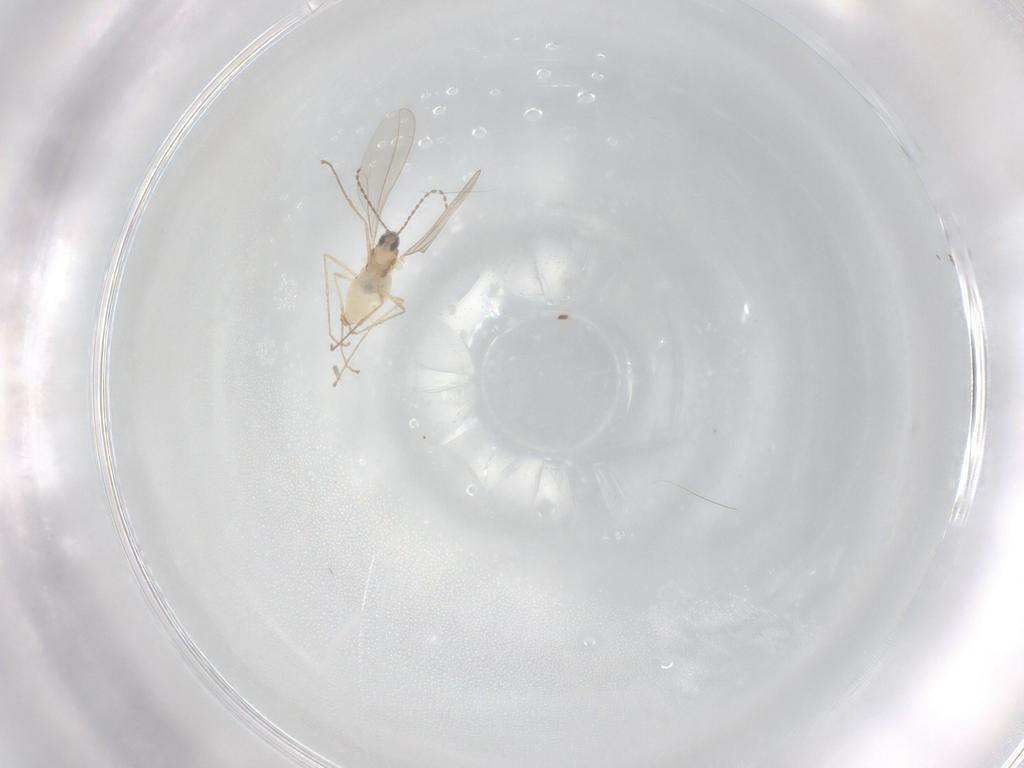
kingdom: Animalia
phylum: Arthropoda
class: Insecta
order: Diptera
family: Cecidomyiidae
